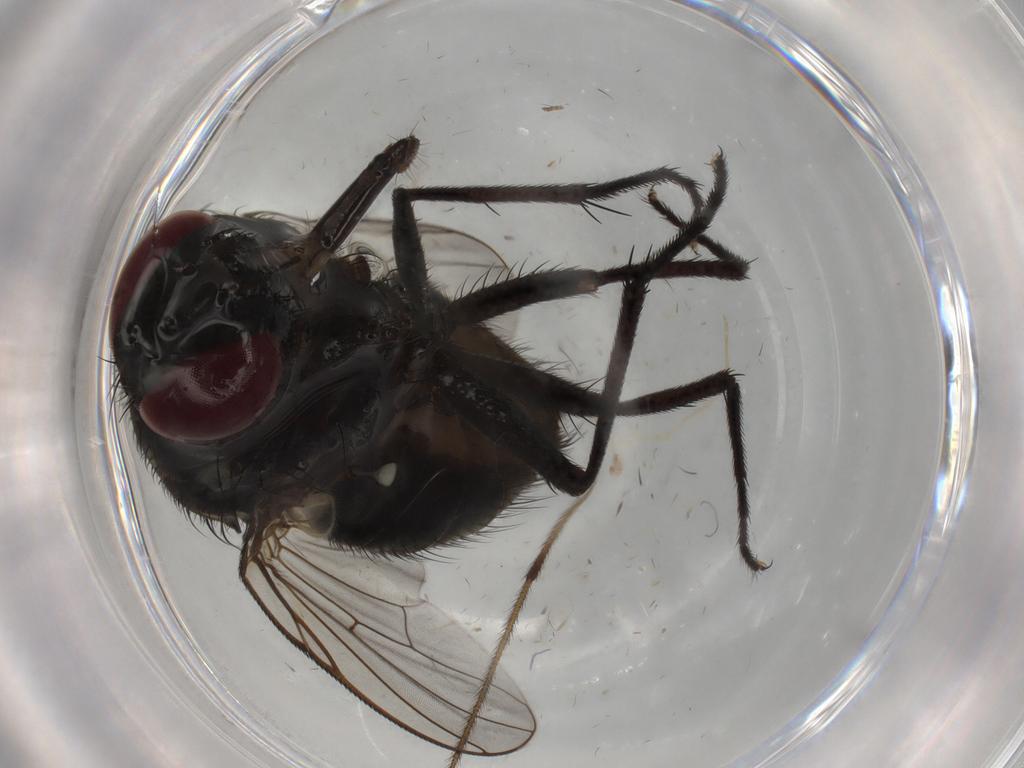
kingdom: Animalia
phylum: Arthropoda
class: Insecta
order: Diptera
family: Muscidae
